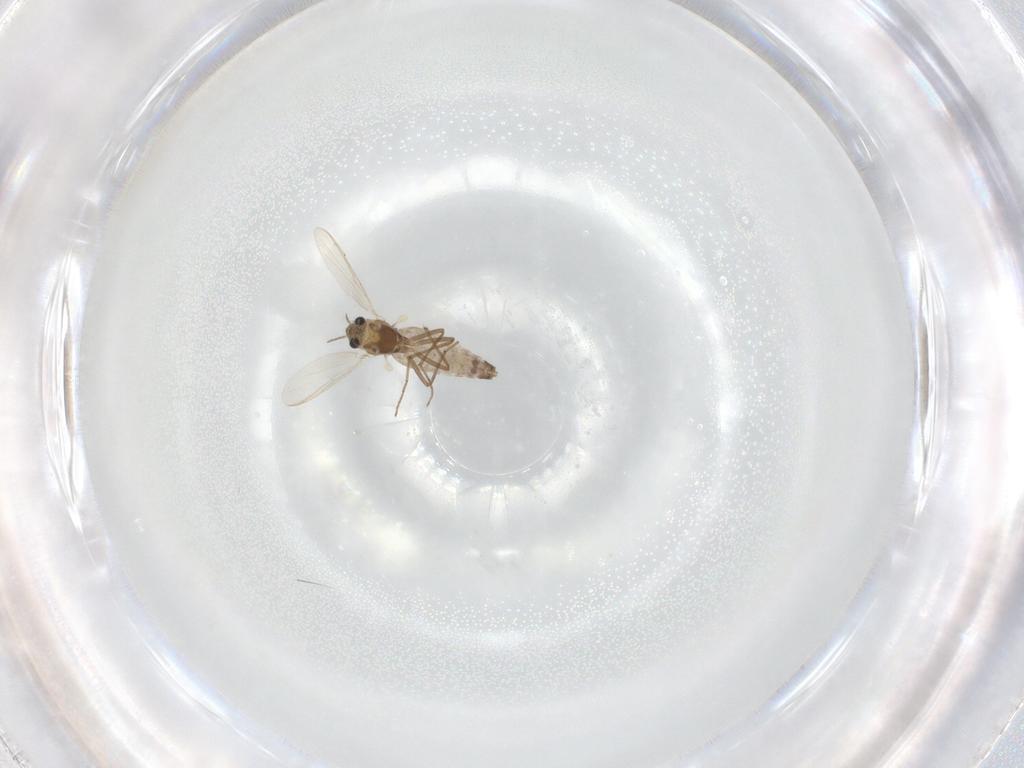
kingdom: Animalia
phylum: Arthropoda
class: Insecta
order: Diptera
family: Chironomidae
